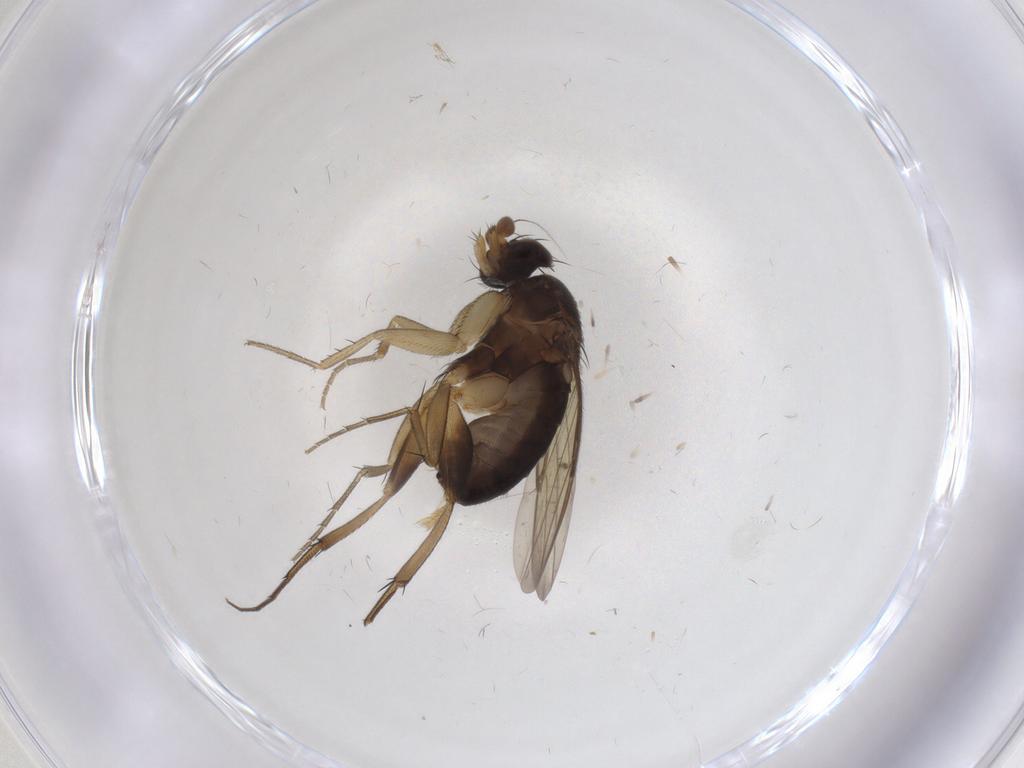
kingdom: Animalia
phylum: Arthropoda
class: Insecta
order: Diptera
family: Phoridae
